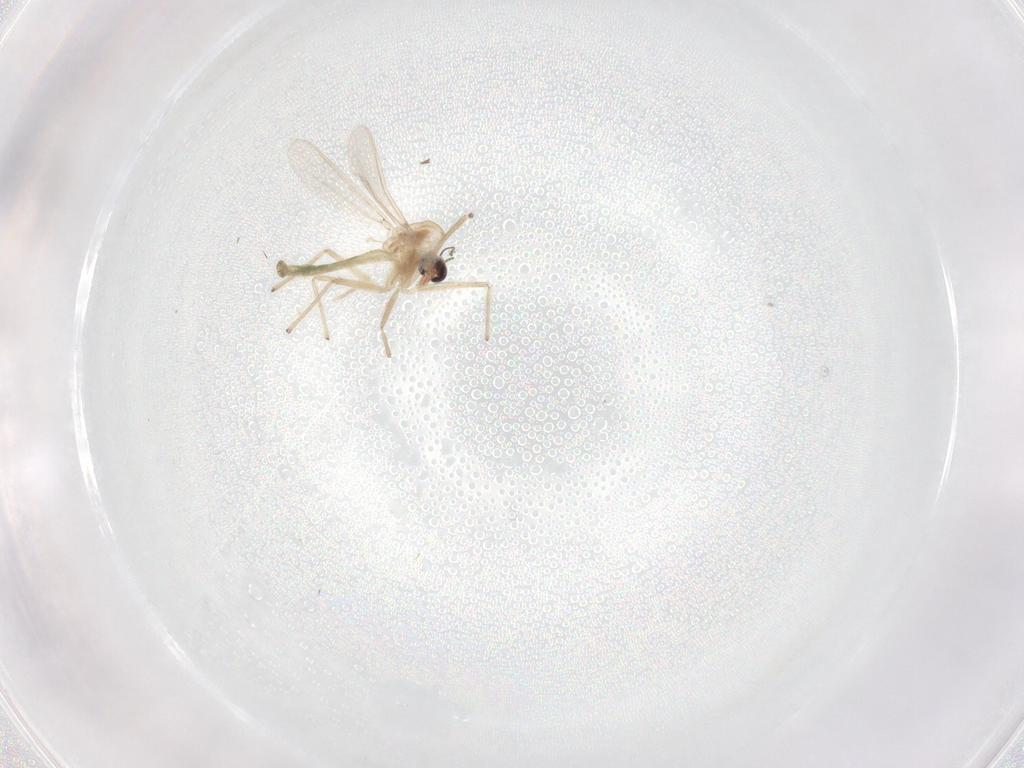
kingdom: Animalia
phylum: Arthropoda
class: Insecta
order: Diptera
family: Chironomidae
